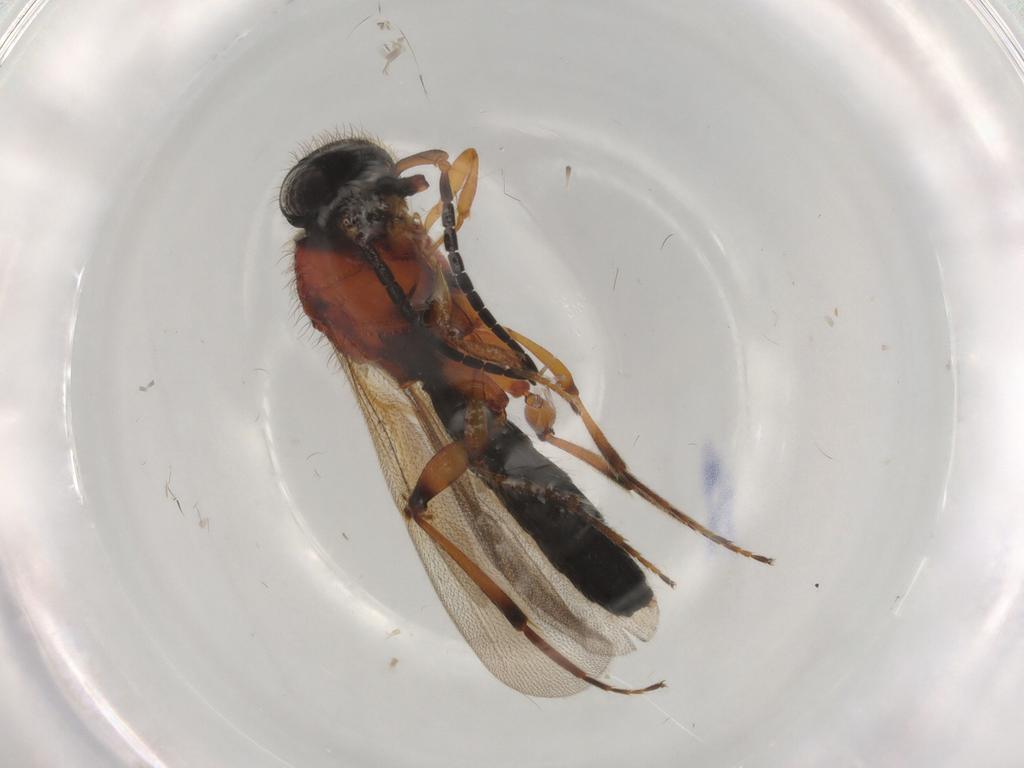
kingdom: Animalia
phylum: Arthropoda
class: Insecta
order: Hymenoptera
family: Scelionidae
